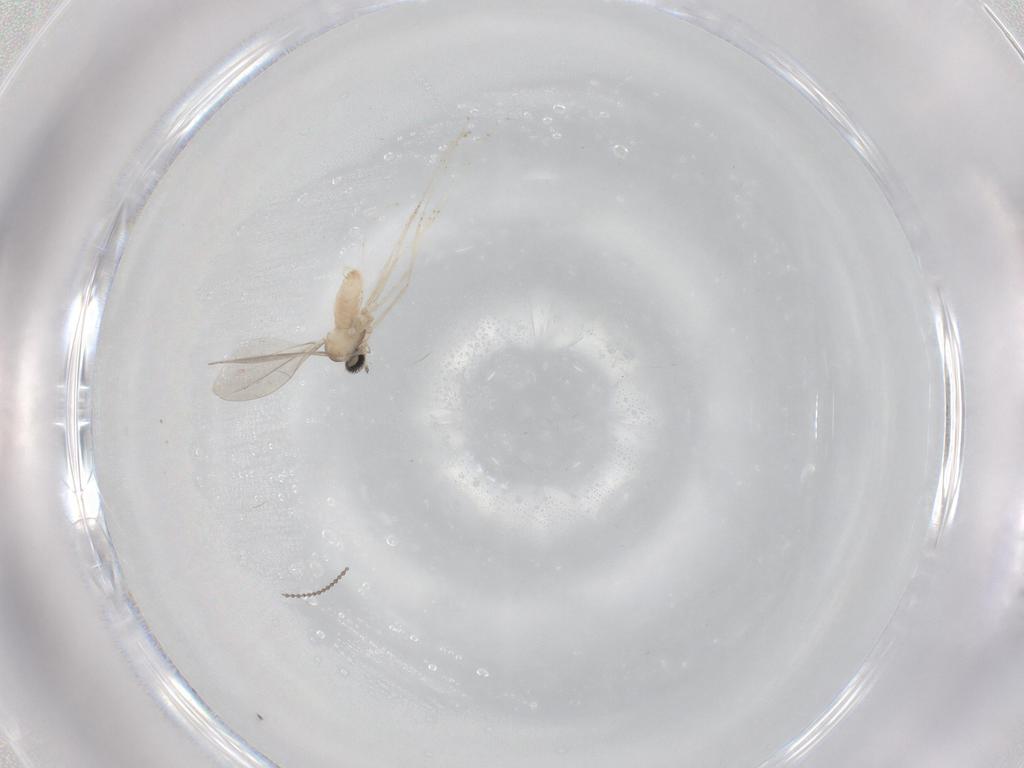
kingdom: Animalia
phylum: Arthropoda
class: Insecta
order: Diptera
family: Cecidomyiidae
